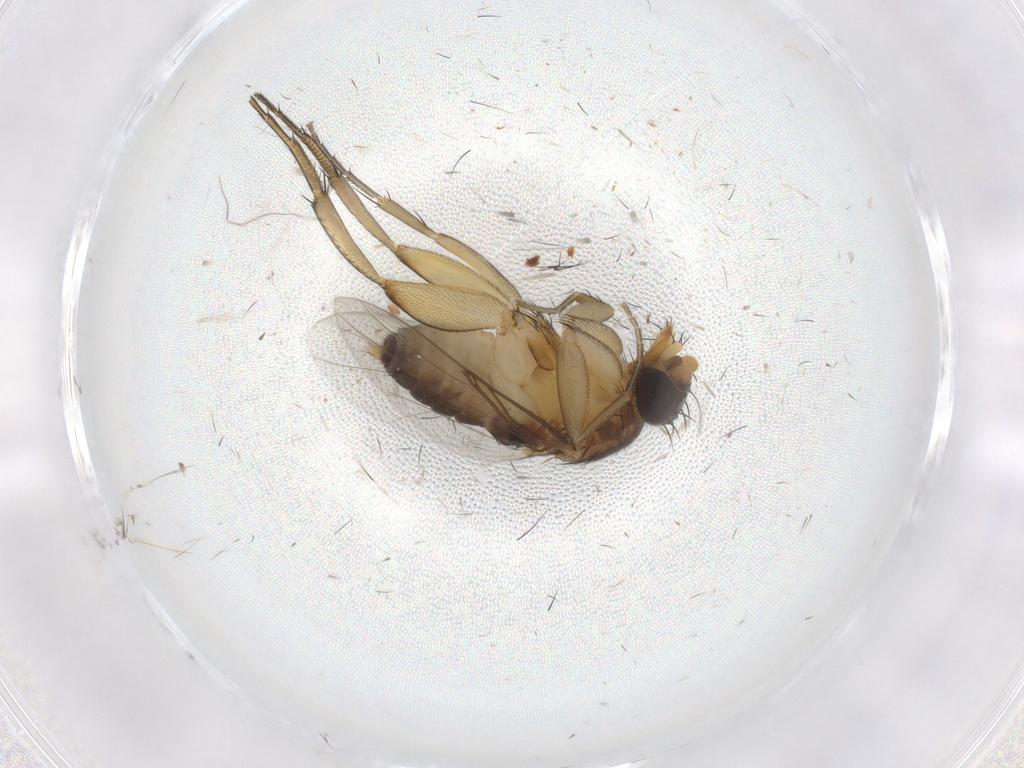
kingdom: Animalia
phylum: Arthropoda
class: Insecta
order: Diptera
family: Phoridae
